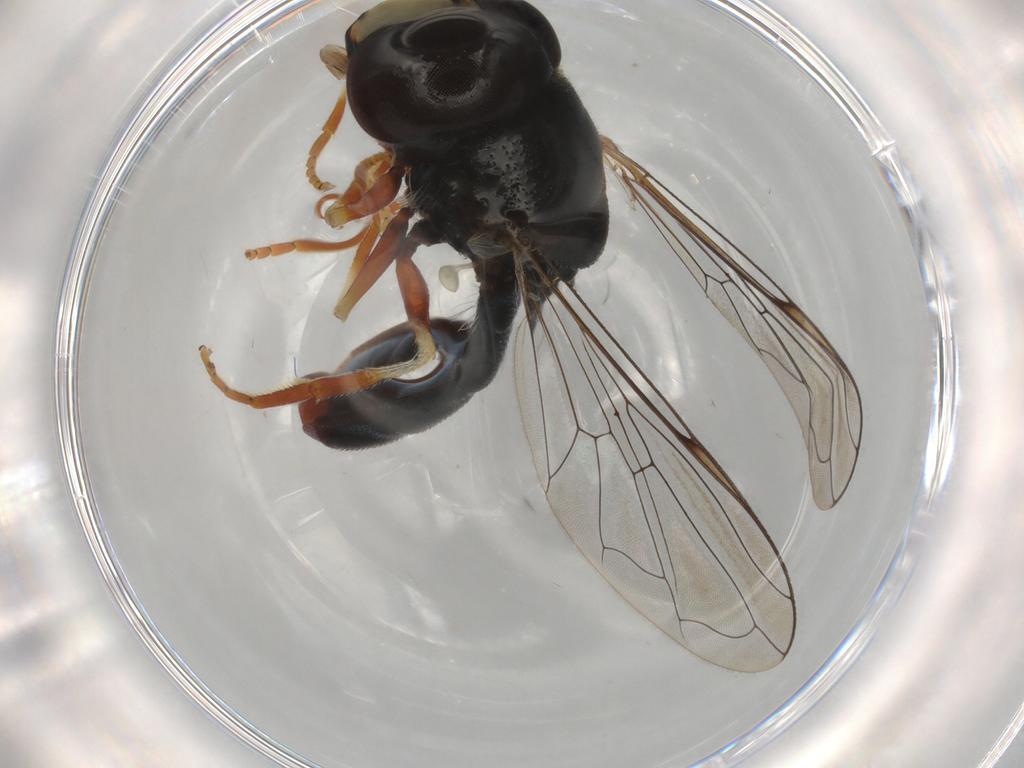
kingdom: Animalia
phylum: Arthropoda
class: Insecta
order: Diptera
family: Syrphidae
